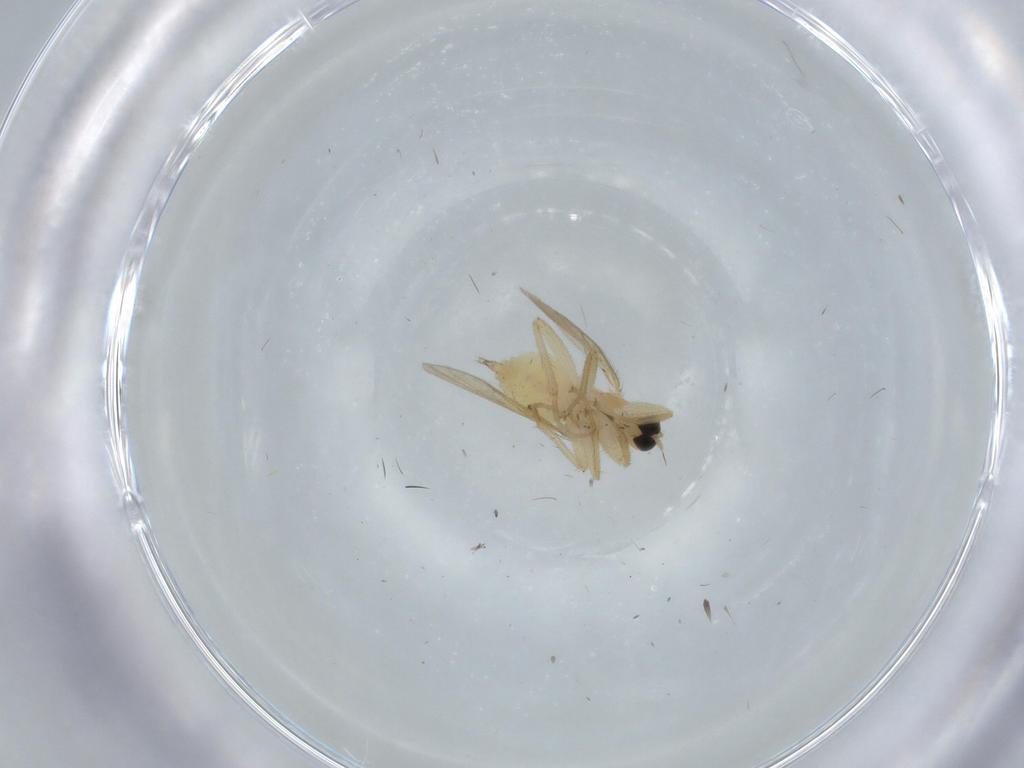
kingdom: Animalia
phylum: Arthropoda
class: Insecta
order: Diptera
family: Hybotidae
